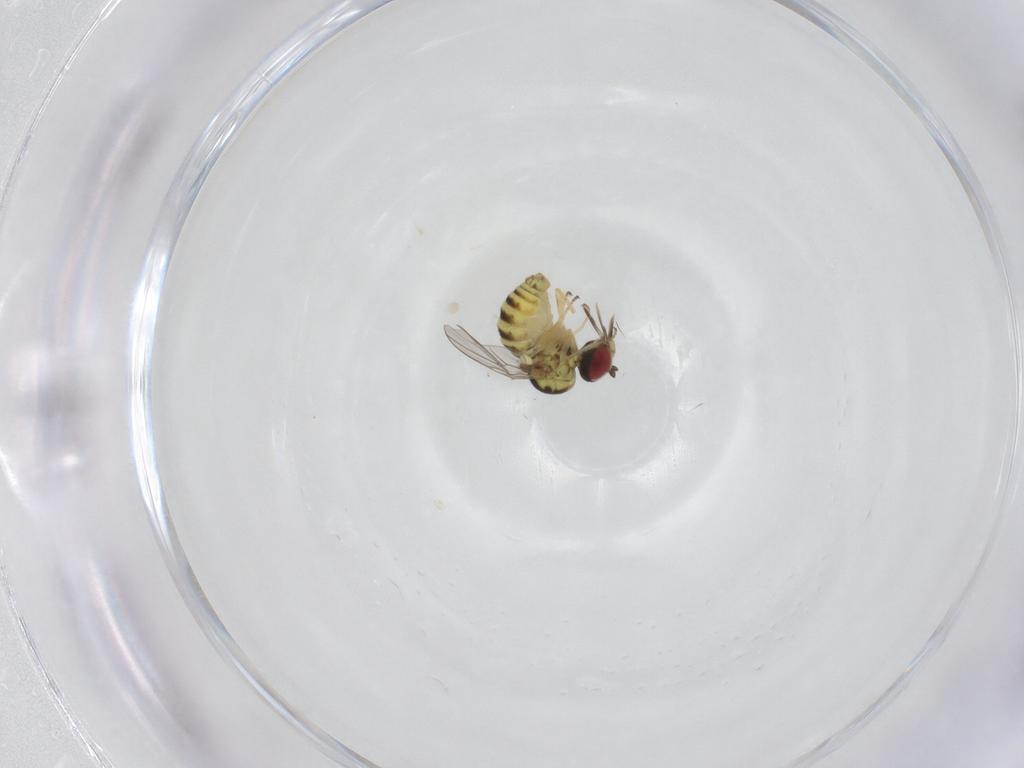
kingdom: Animalia
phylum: Arthropoda
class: Insecta
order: Diptera
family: Mythicomyiidae
